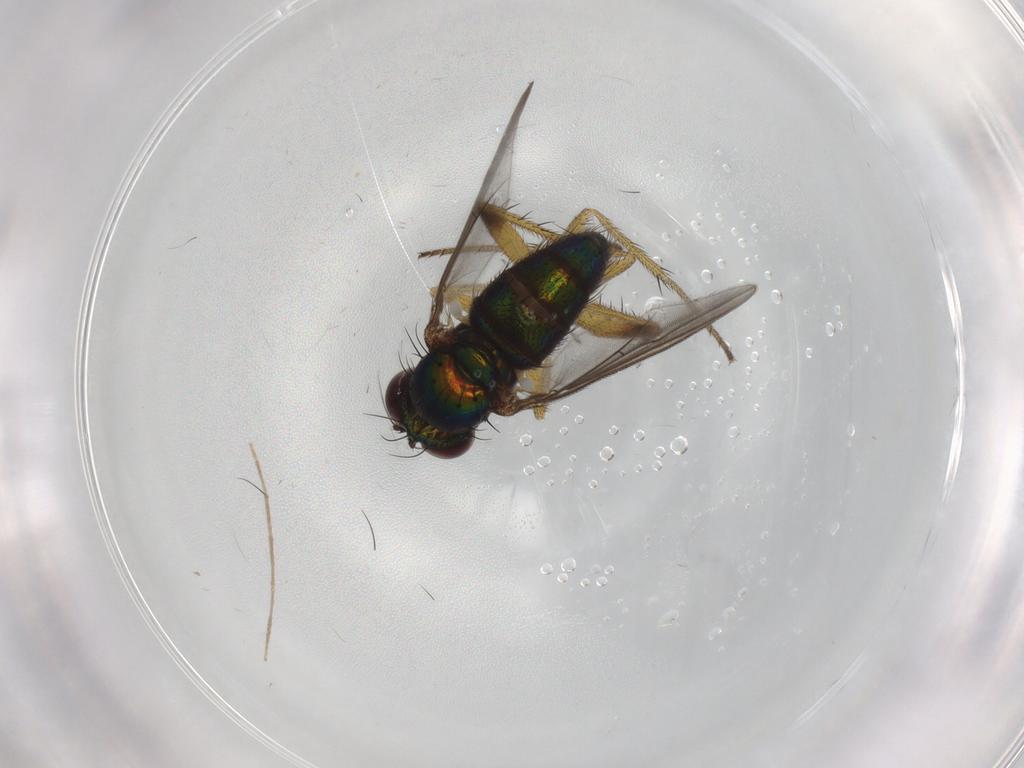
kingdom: Animalia
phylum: Arthropoda
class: Insecta
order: Diptera
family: Dolichopodidae
